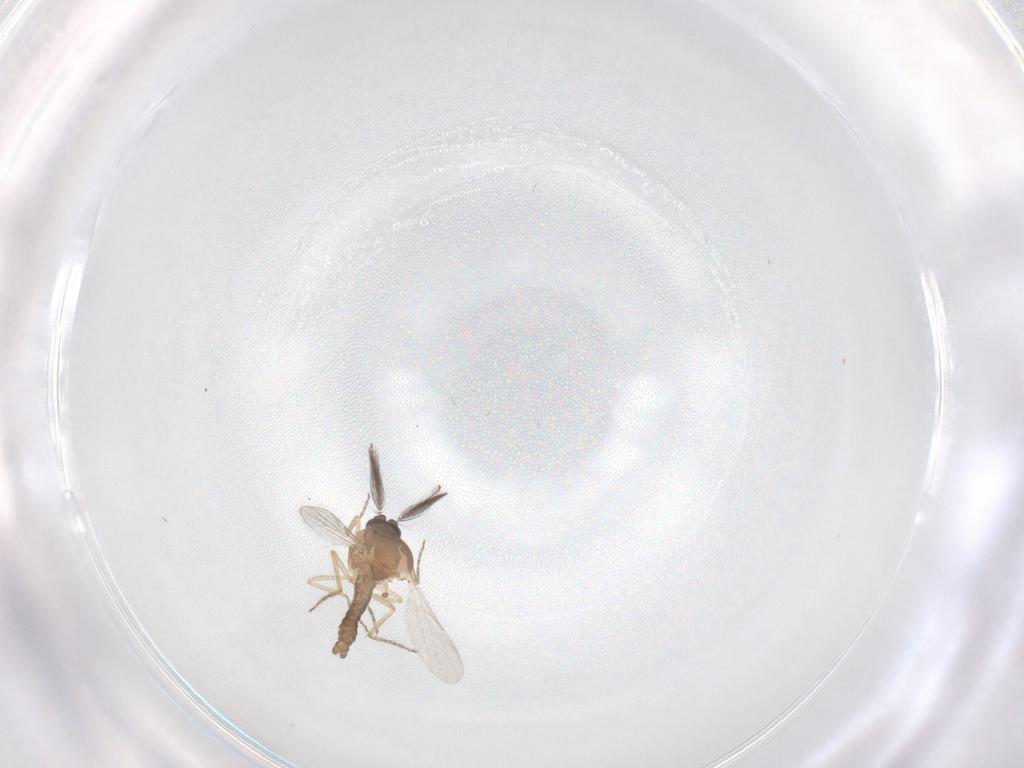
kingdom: Animalia
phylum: Arthropoda
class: Insecta
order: Diptera
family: Ceratopogonidae
